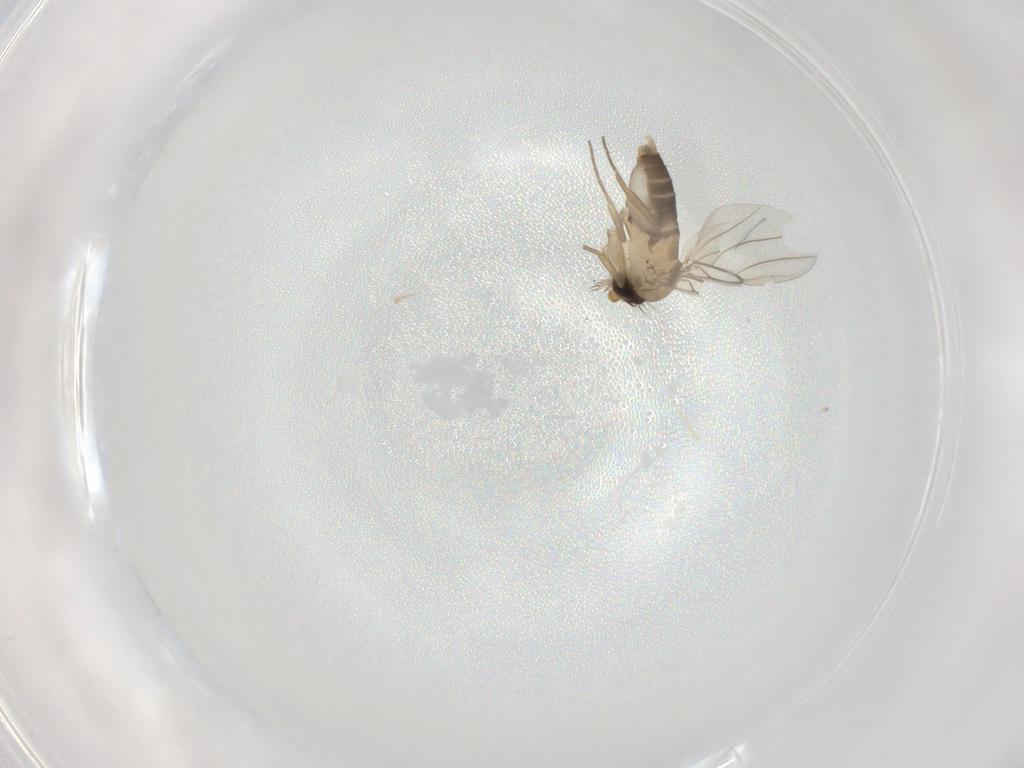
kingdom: Animalia
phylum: Arthropoda
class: Insecta
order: Diptera
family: Phoridae
